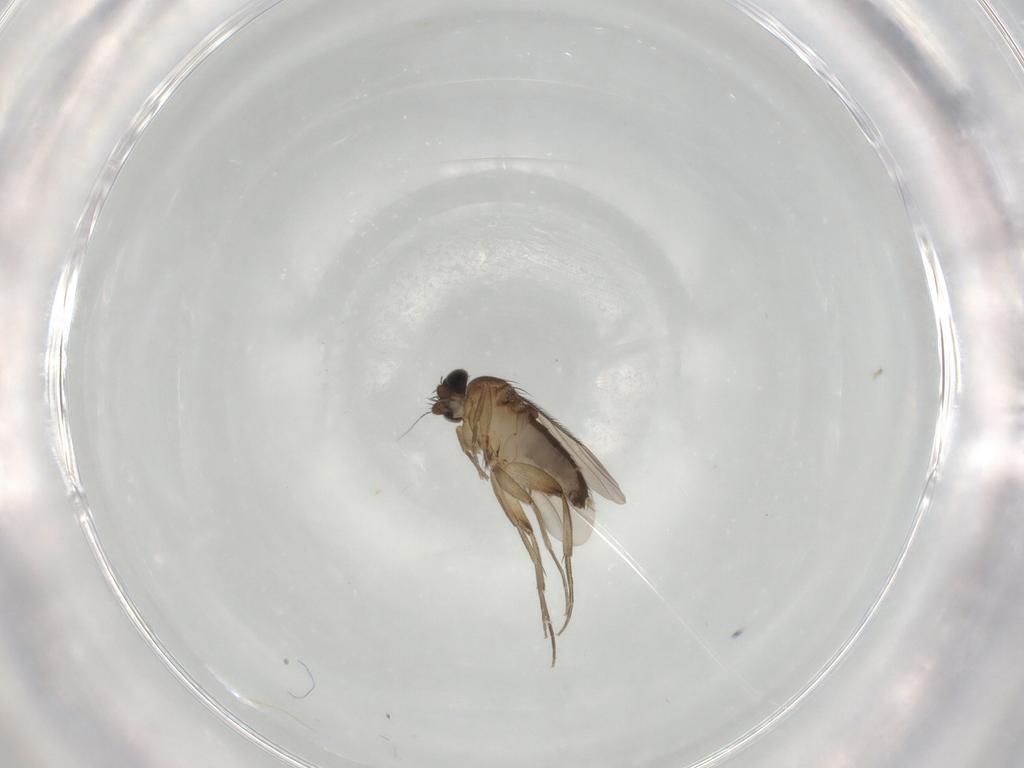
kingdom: Animalia
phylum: Arthropoda
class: Insecta
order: Diptera
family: Phoridae
